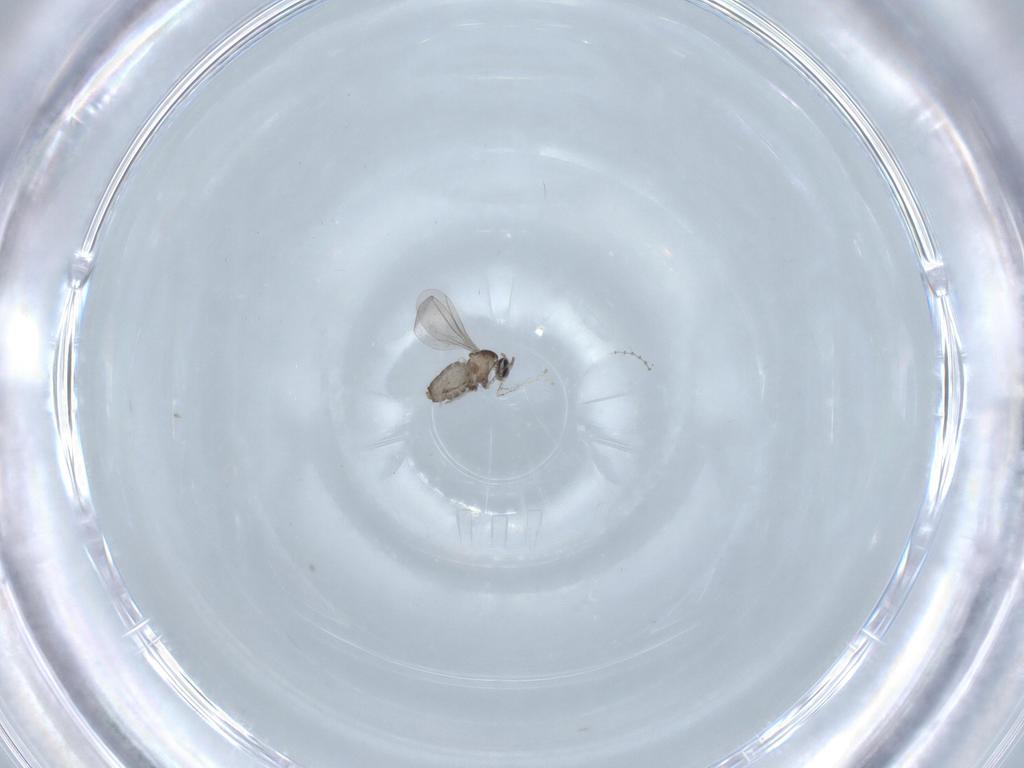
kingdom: Animalia
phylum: Arthropoda
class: Insecta
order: Diptera
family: Cecidomyiidae
